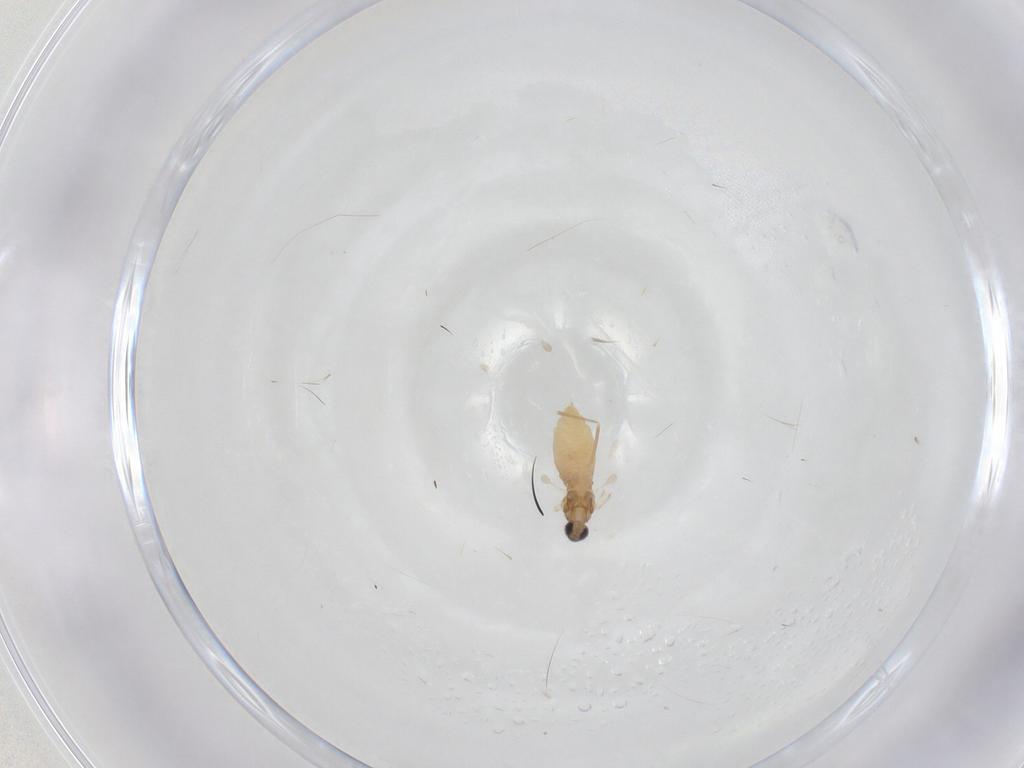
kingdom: Animalia
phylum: Arthropoda
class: Insecta
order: Diptera
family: Cecidomyiidae
